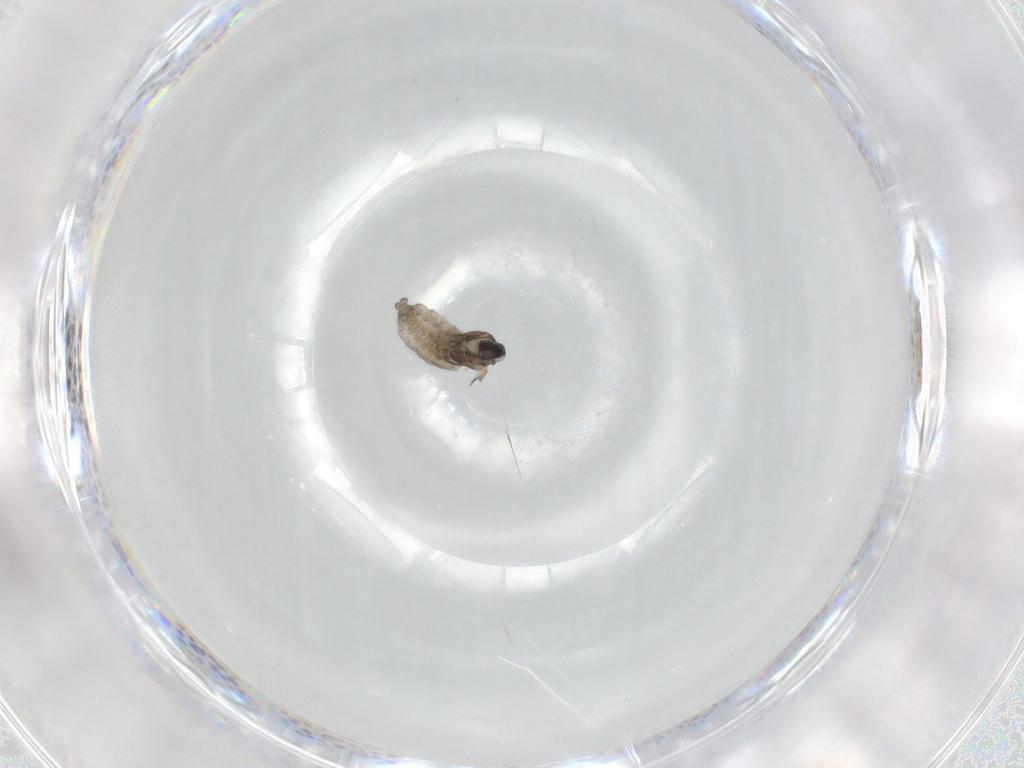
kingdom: Animalia
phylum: Arthropoda
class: Insecta
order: Diptera
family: Cecidomyiidae
